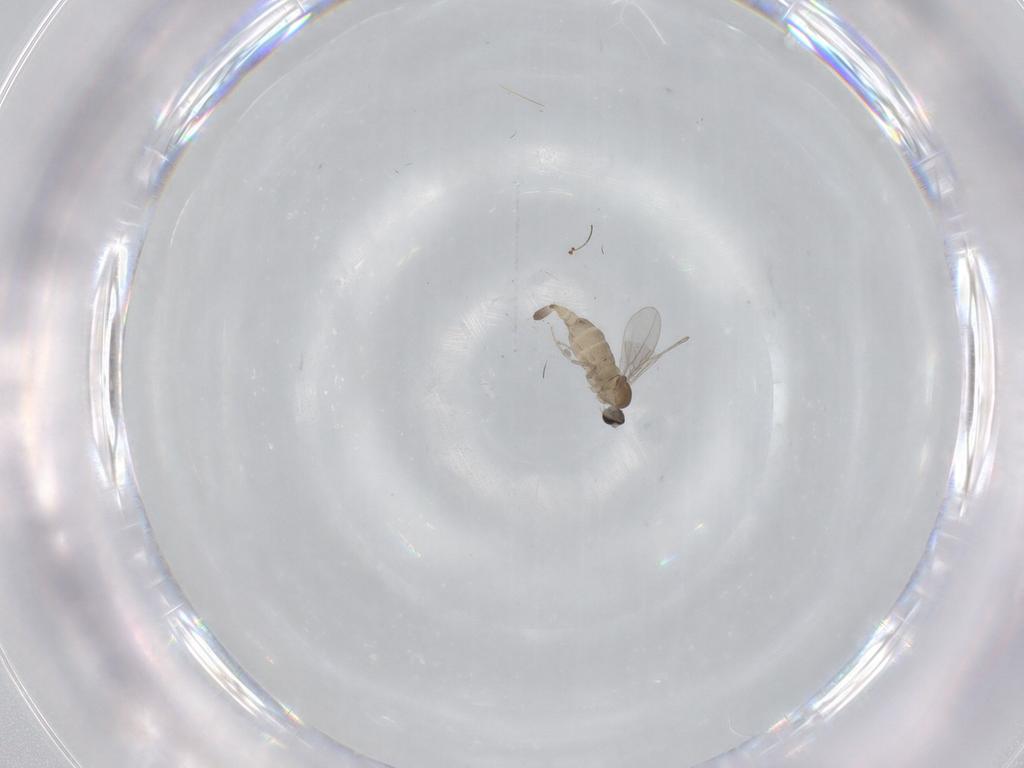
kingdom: Animalia
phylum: Arthropoda
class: Insecta
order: Diptera
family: Cecidomyiidae
